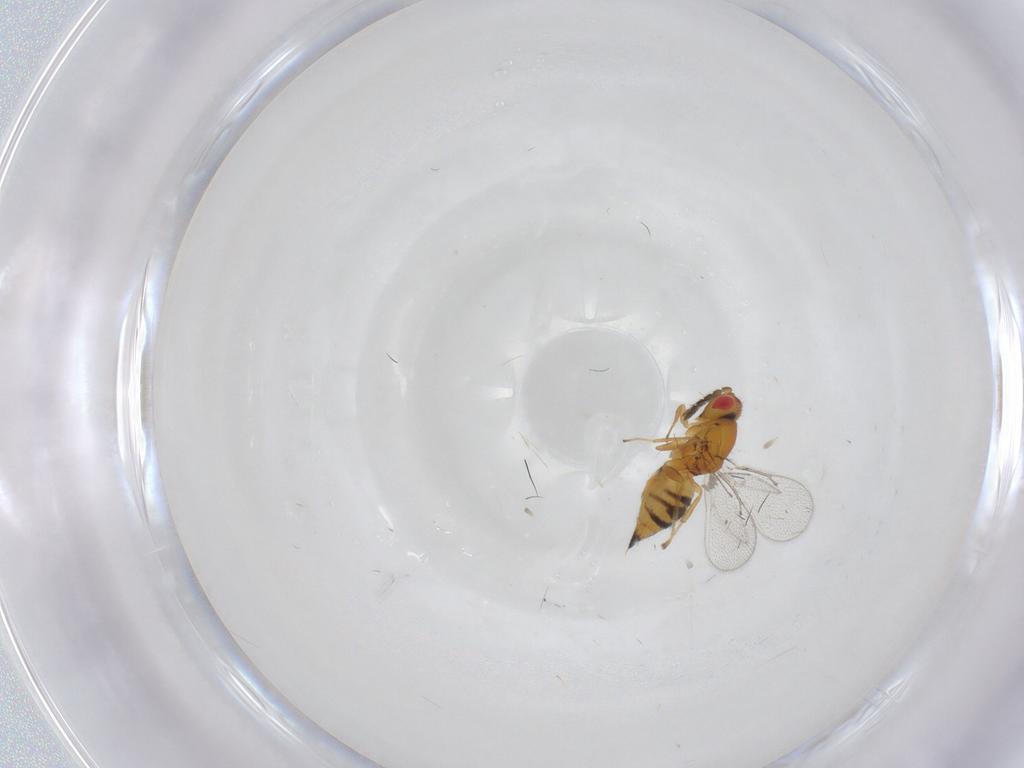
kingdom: Animalia
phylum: Arthropoda
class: Insecta
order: Hymenoptera
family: Eulophidae
